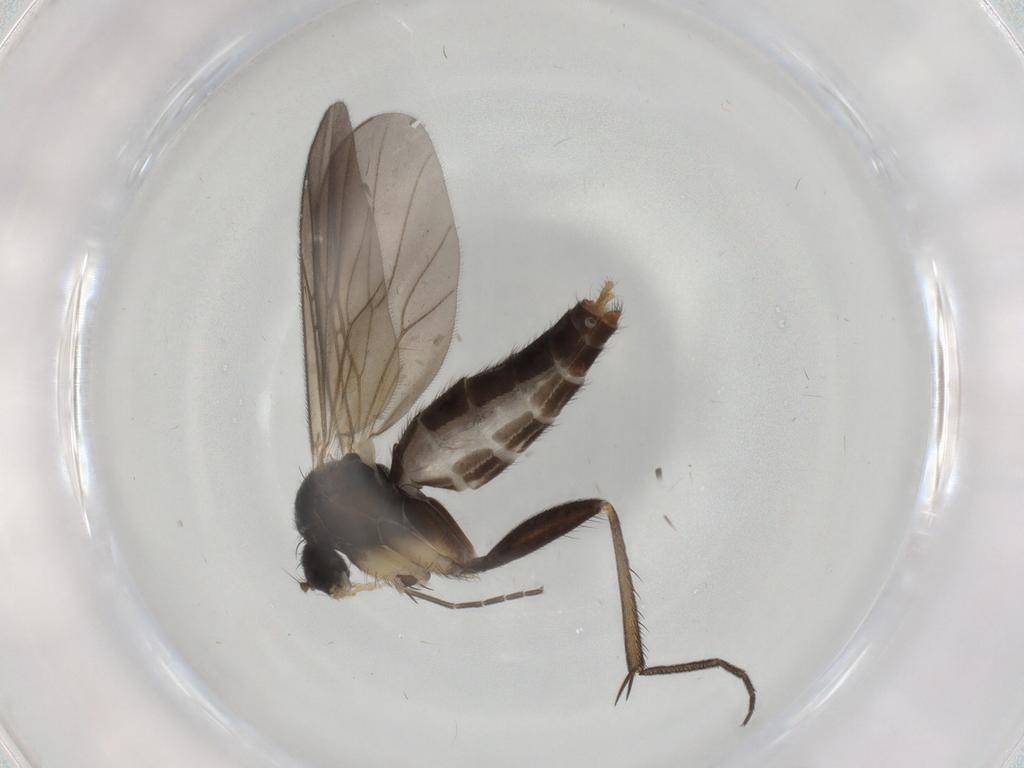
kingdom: Animalia
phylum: Arthropoda
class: Insecta
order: Diptera
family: Mycetophilidae
